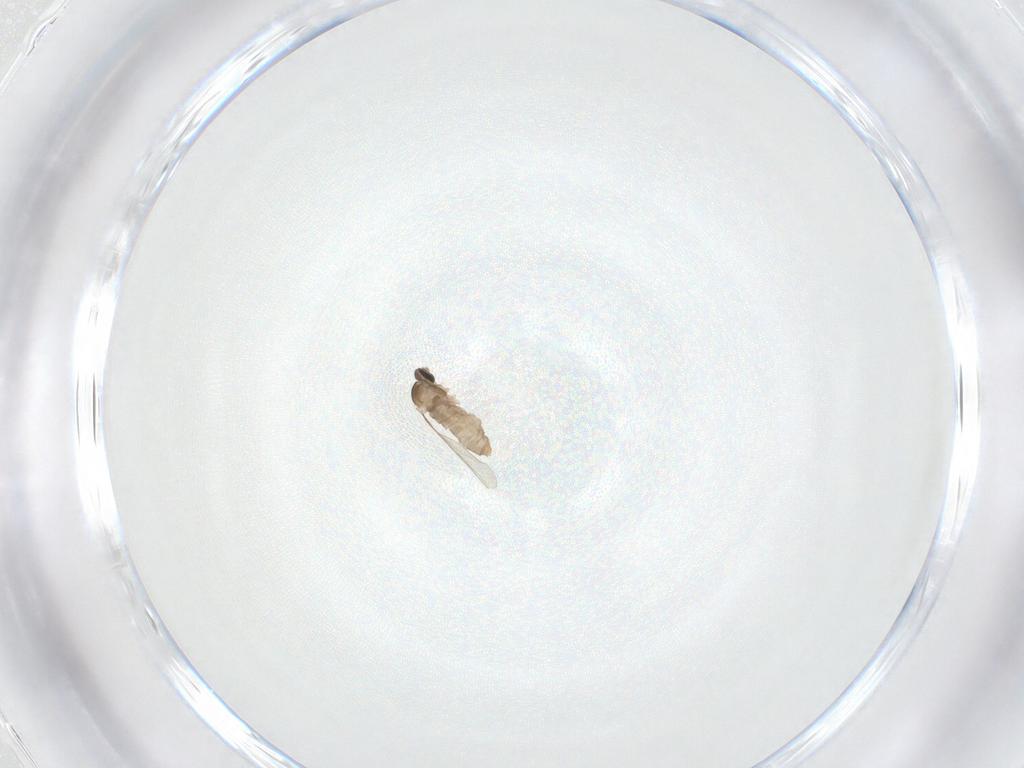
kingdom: Animalia
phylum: Arthropoda
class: Insecta
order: Diptera
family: Cecidomyiidae
